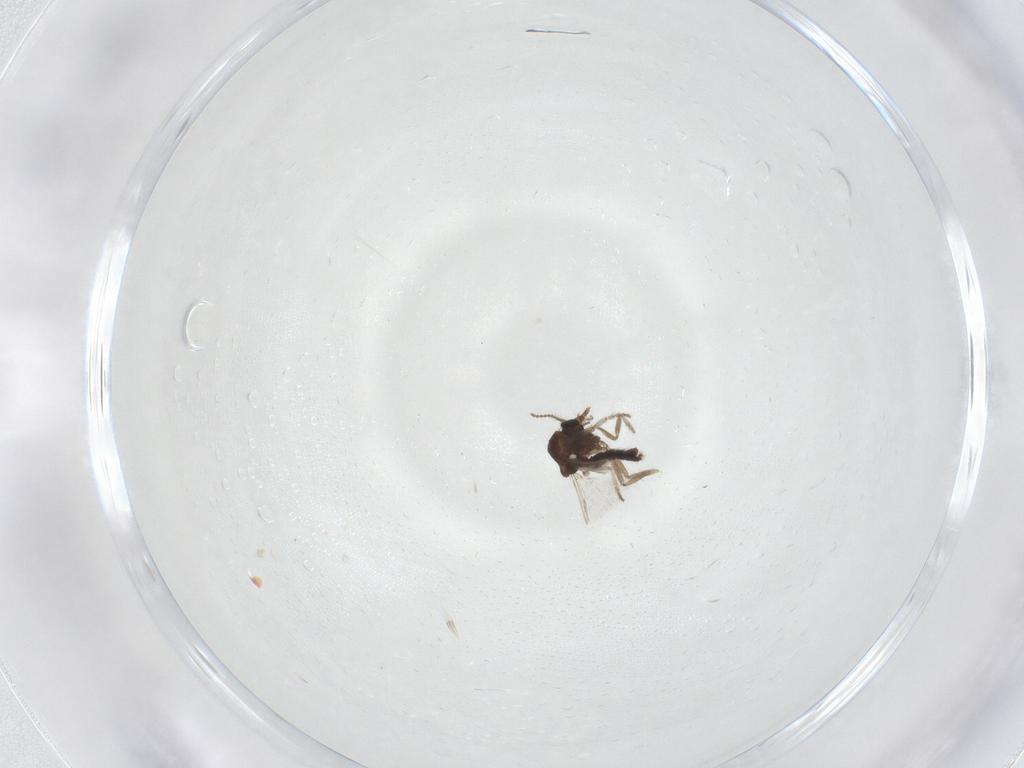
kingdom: Animalia
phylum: Arthropoda
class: Insecta
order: Diptera
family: Ceratopogonidae
